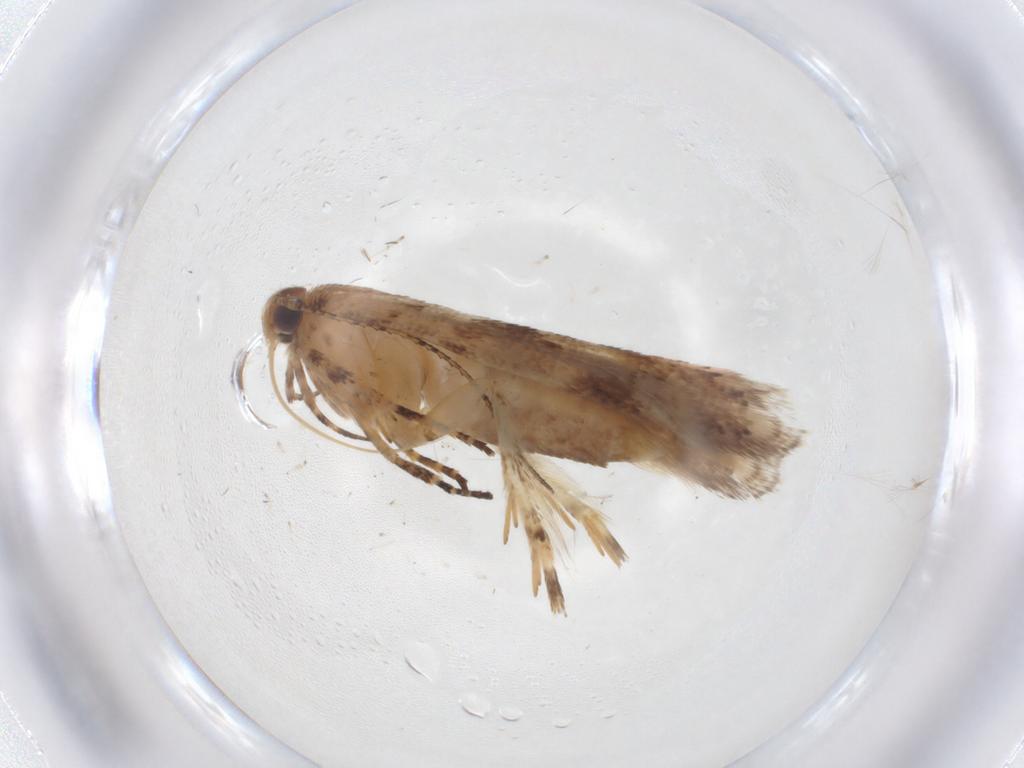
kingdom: Animalia
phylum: Arthropoda
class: Insecta
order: Lepidoptera
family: Gelechiidae
